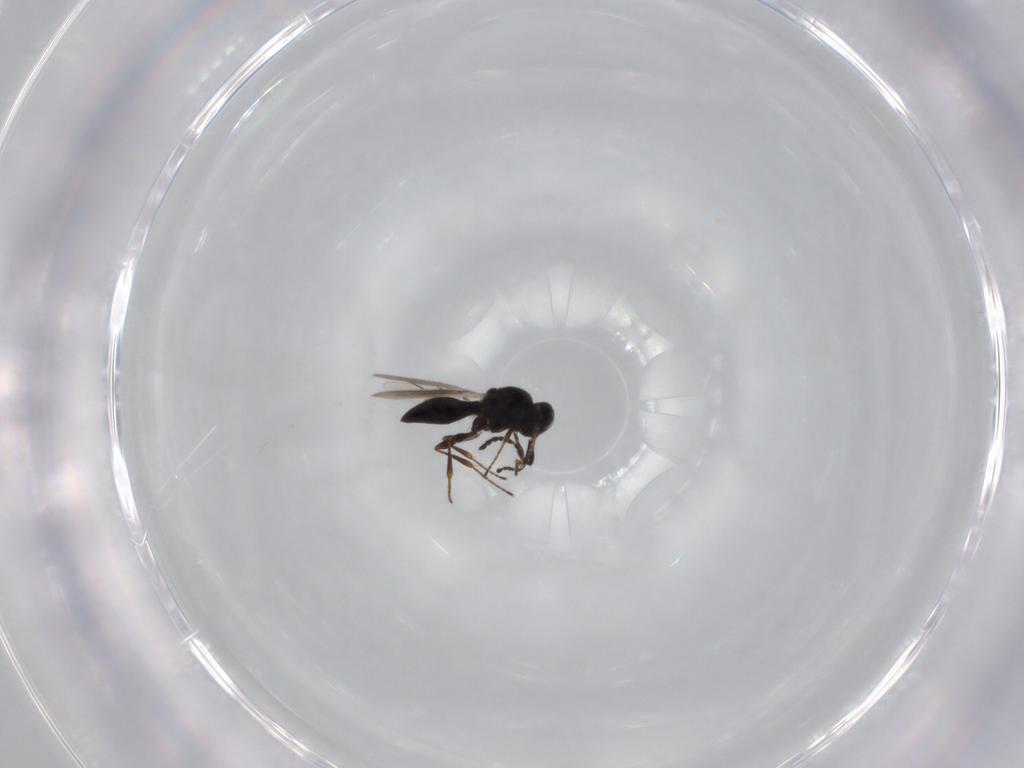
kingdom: Animalia
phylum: Arthropoda
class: Insecta
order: Hymenoptera
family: Platygastridae
